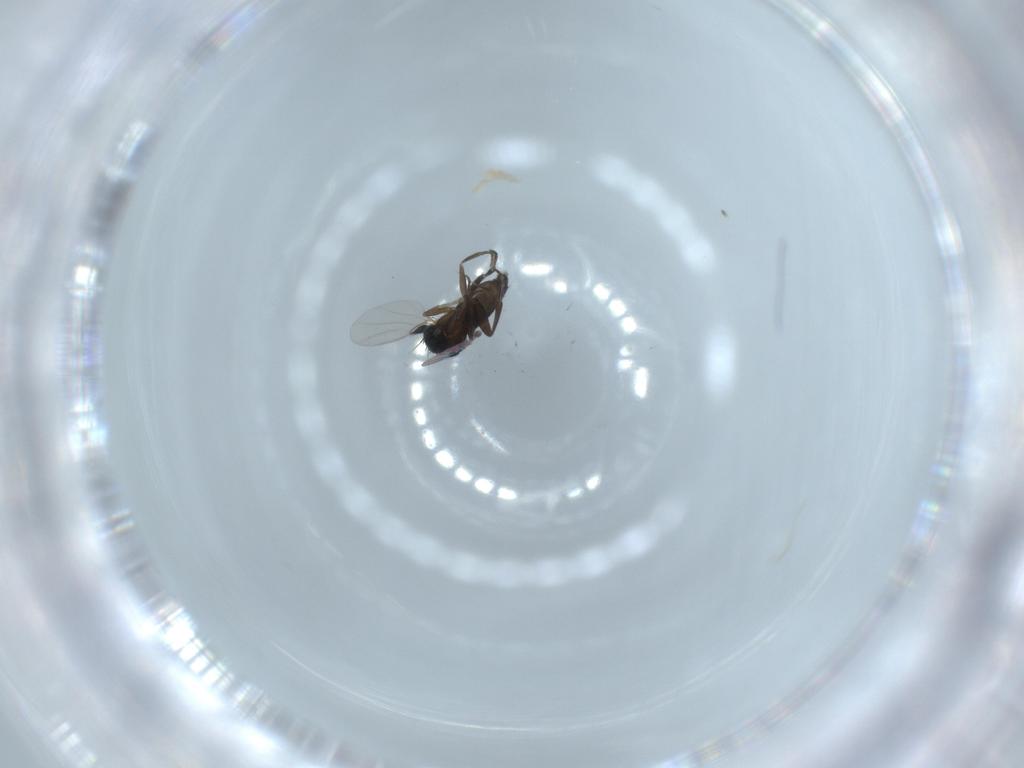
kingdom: Animalia
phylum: Arthropoda
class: Insecta
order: Diptera
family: Phoridae
